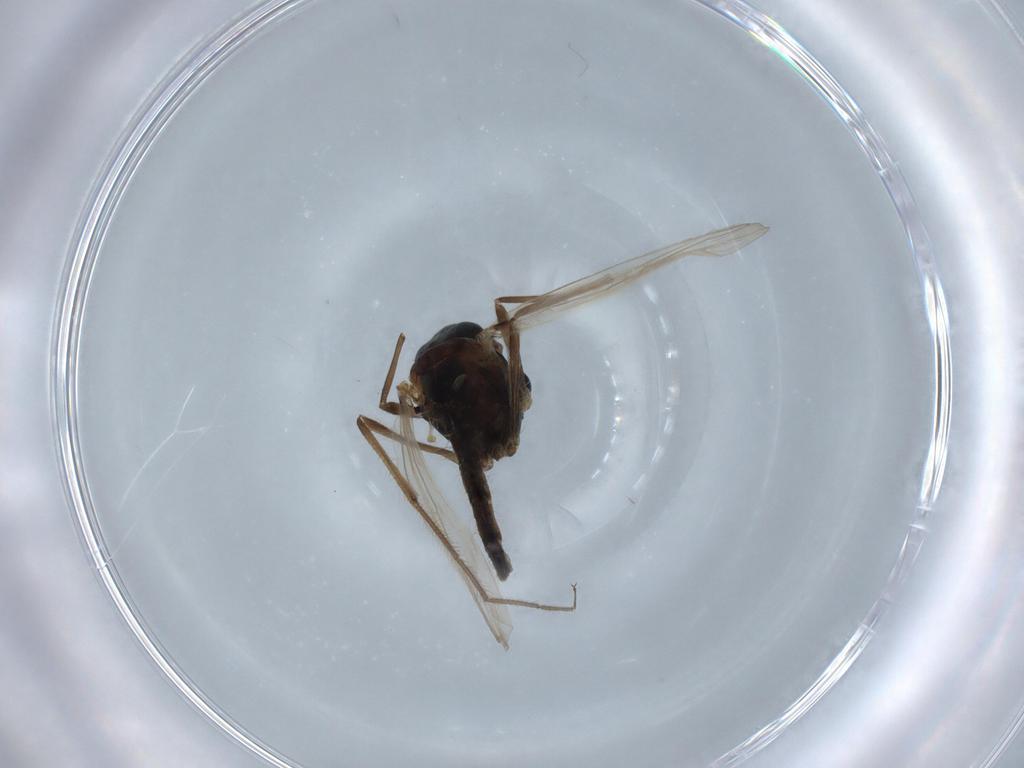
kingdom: Animalia
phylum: Arthropoda
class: Insecta
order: Diptera
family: Chironomidae
